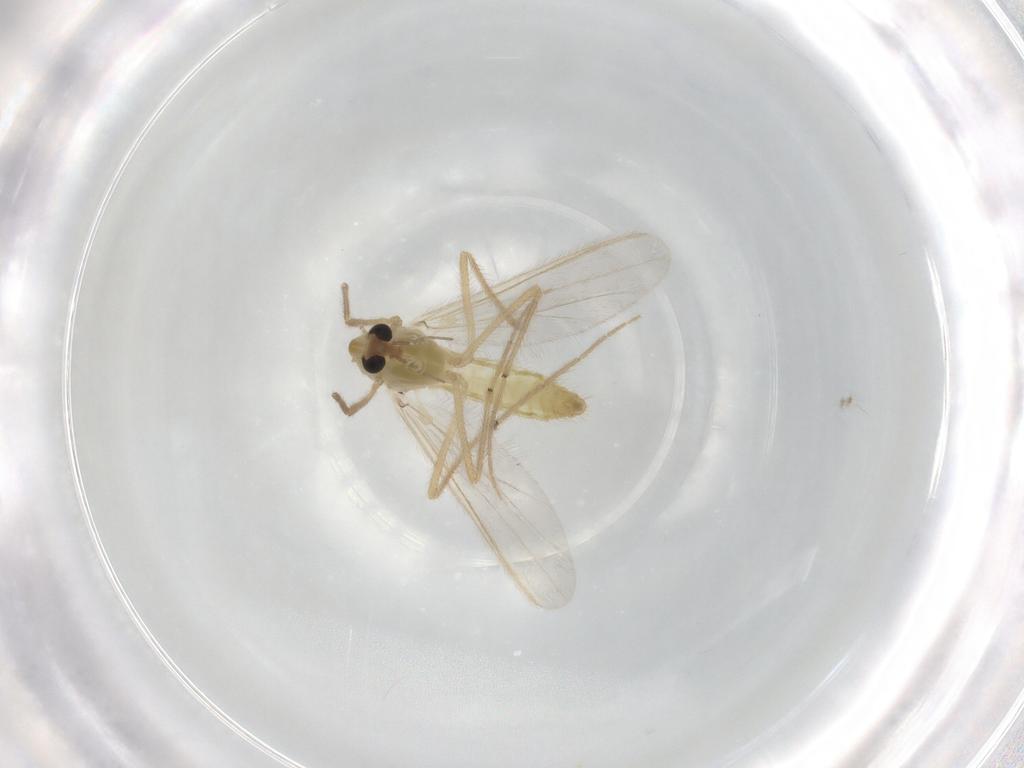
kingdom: Animalia
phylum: Arthropoda
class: Insecta
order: Diptera
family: Chironomidae
